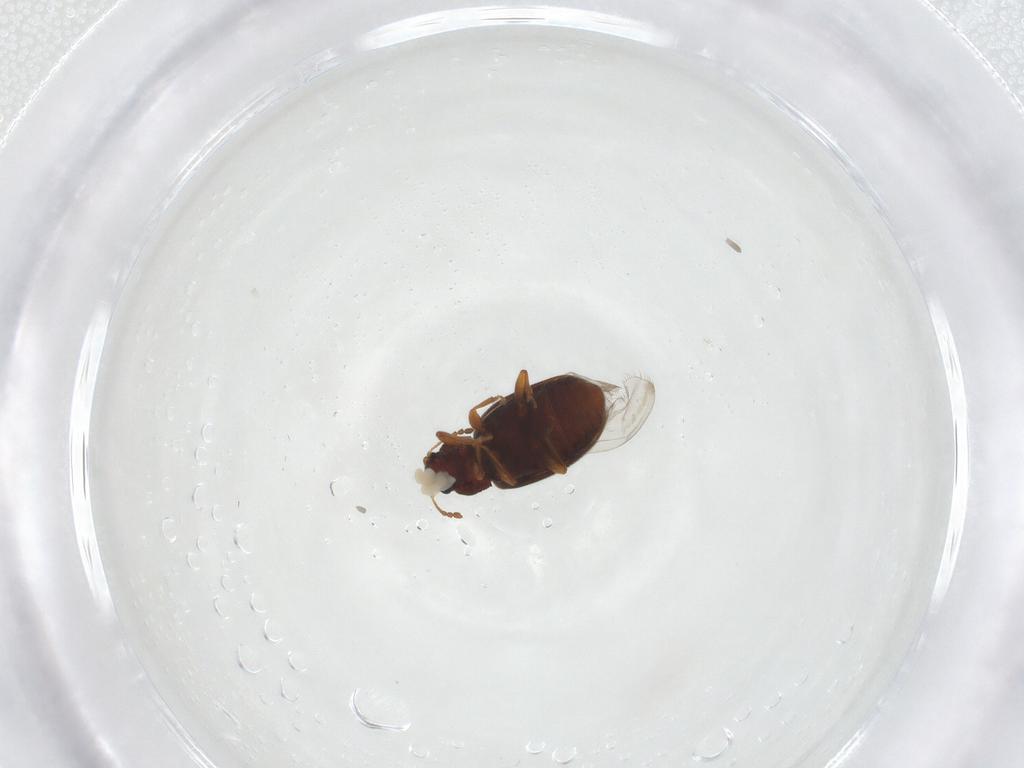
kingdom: Animalia
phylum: Arthropoda
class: Insecta
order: Coleoptera
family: Latridiidae
